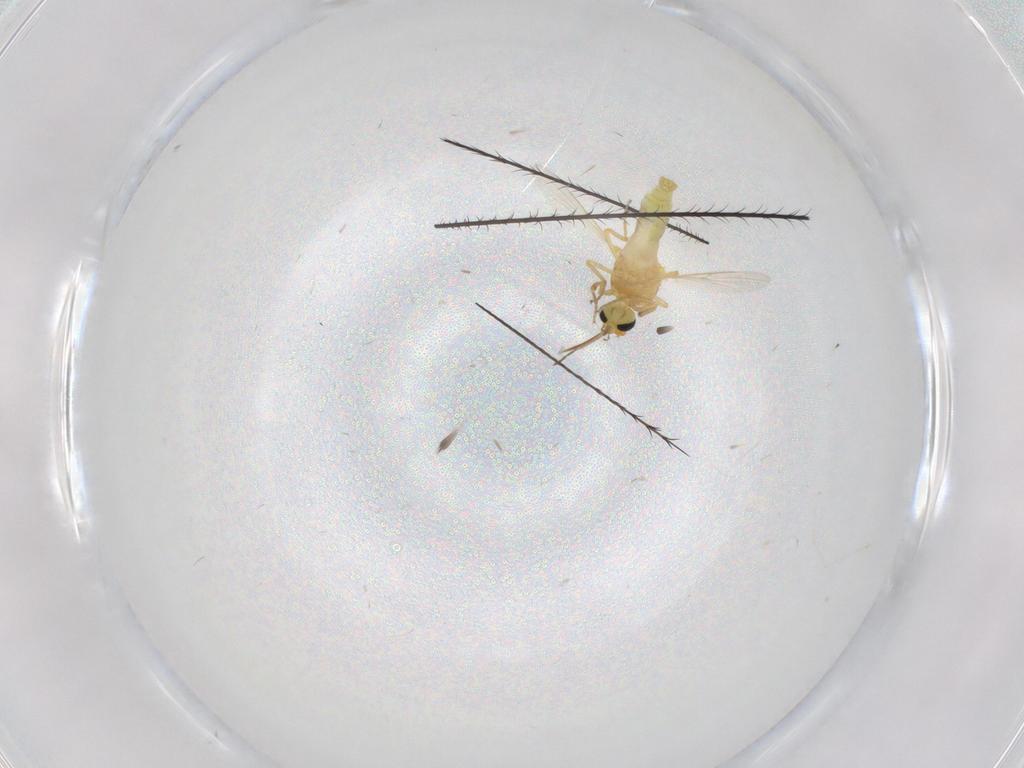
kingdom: Animalia
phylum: Arthropoda
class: Insecta
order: Diptera
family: Ceratopogonidae
